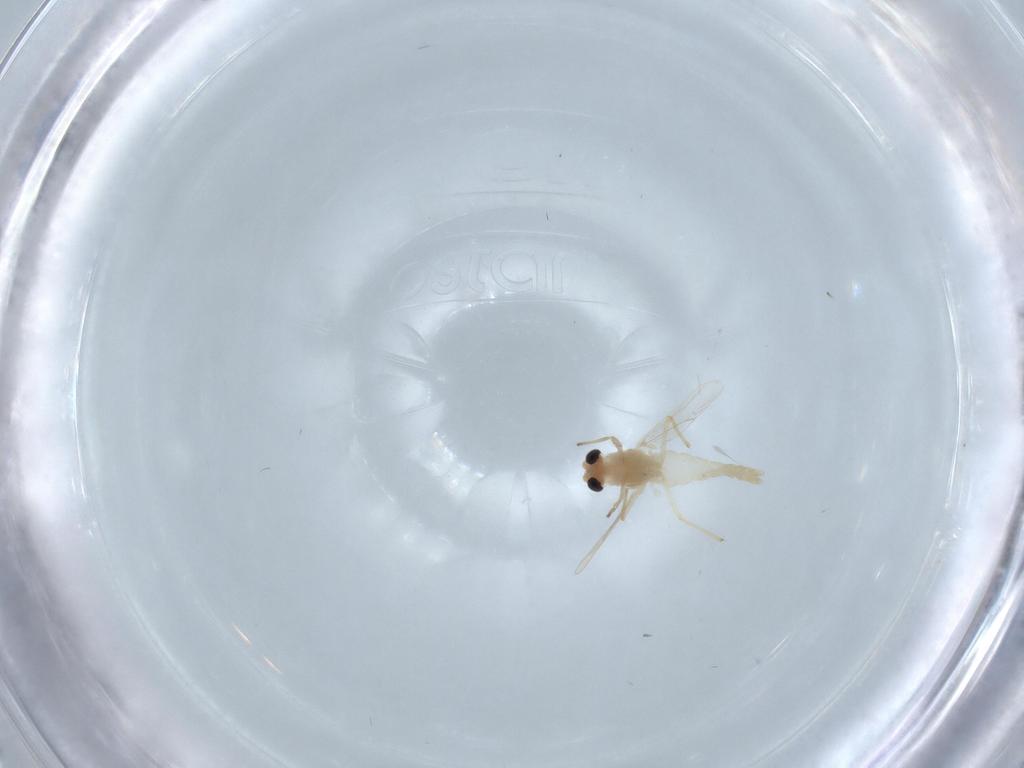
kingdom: Animalia
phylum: Arthropoda
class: Insecta
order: Diptera
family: Chironomidae
